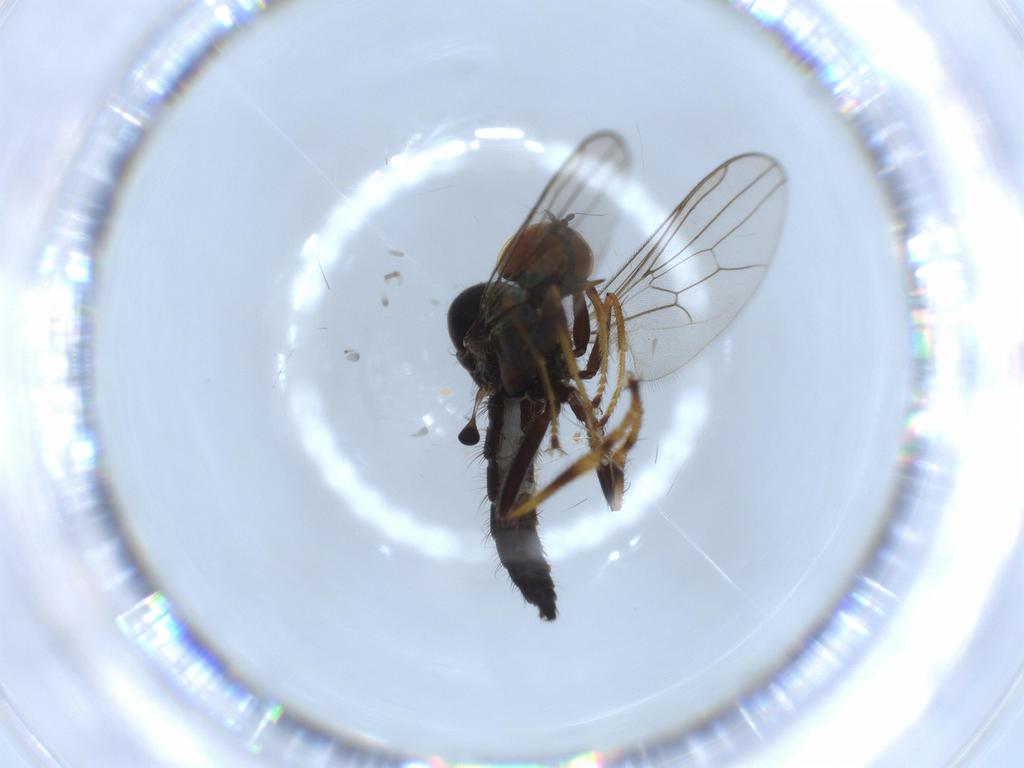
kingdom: Animalia
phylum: Arthropoda
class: Insecta
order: Diptera
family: Hybotidae
